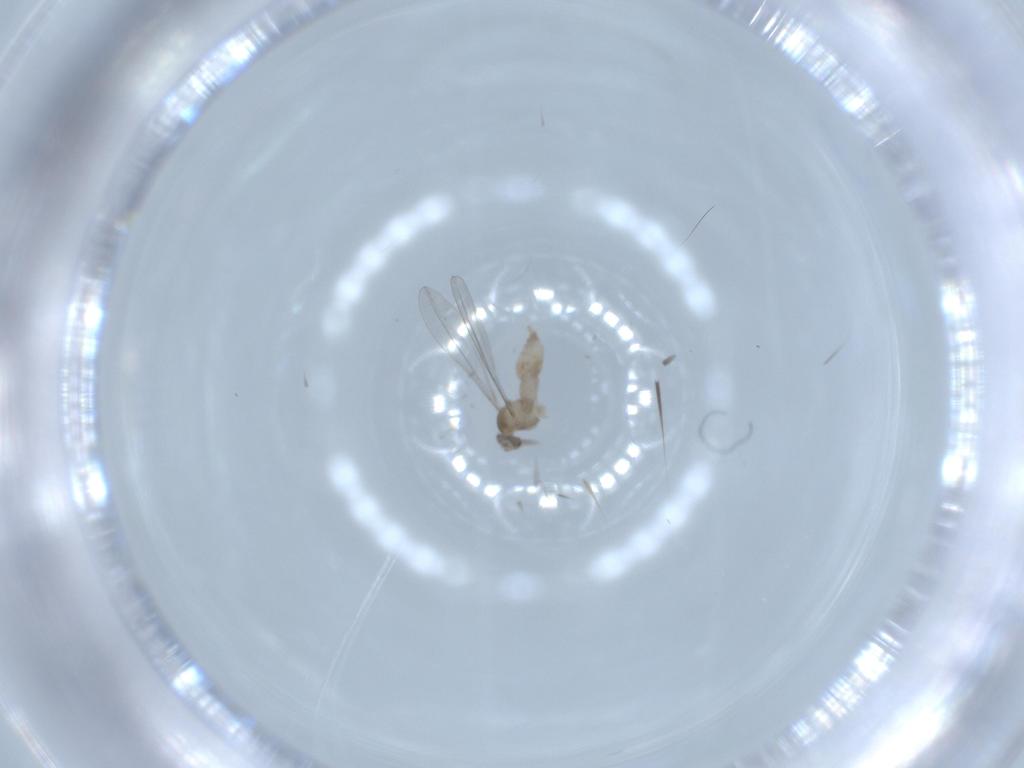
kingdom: Animalia
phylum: Arthropoda
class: Insecta
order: Diptera
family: Cecidomyiidae
